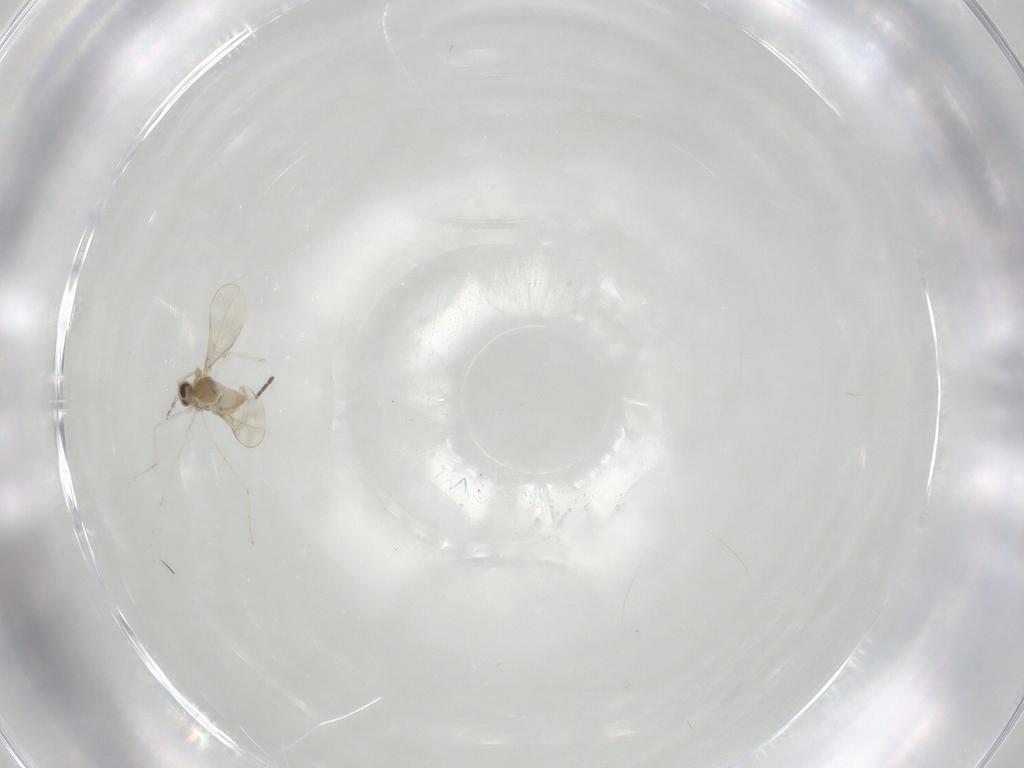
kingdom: Animalia
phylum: Arthropoda
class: Insecta
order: Diptera
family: Cecidomyiidae
